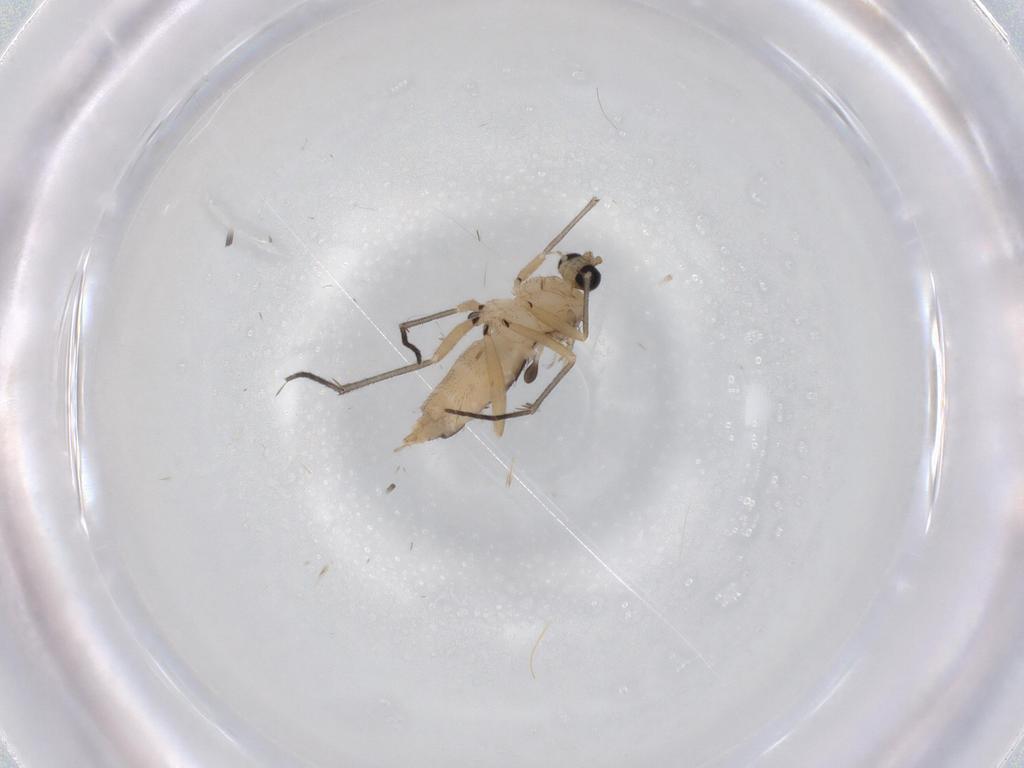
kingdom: Animalia
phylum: Arthropoda
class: Insecta
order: Diptera
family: Sciaridae
